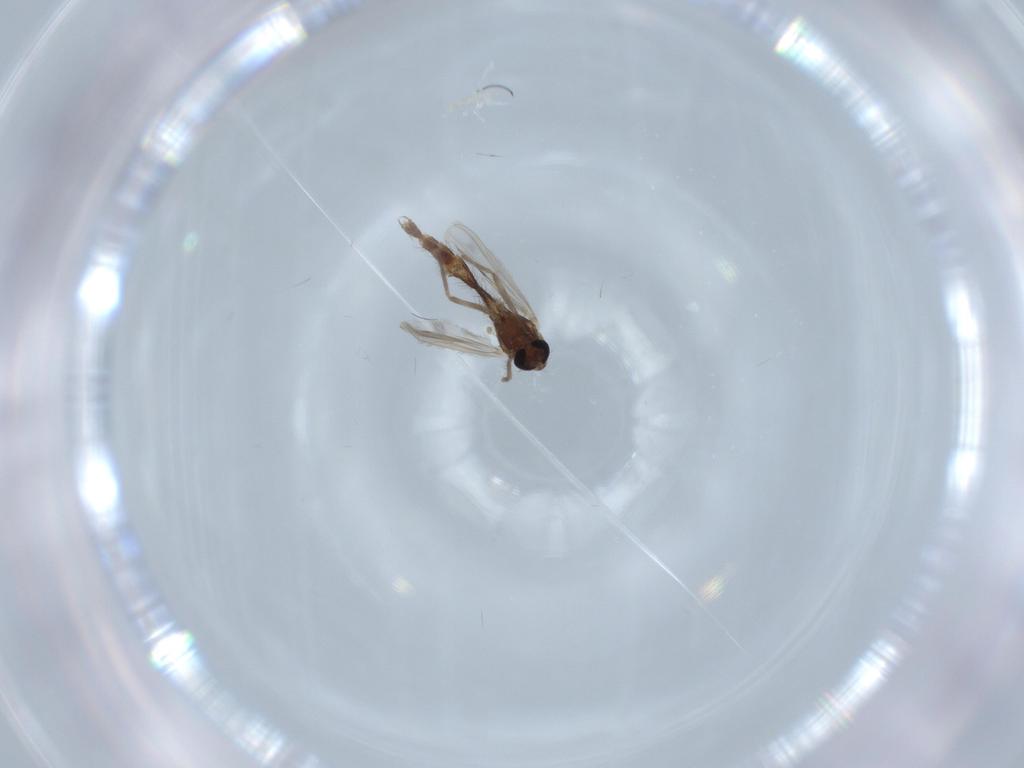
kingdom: Animalia
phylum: Arthropoda
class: Insecta
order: Diptera
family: Chironomidae
